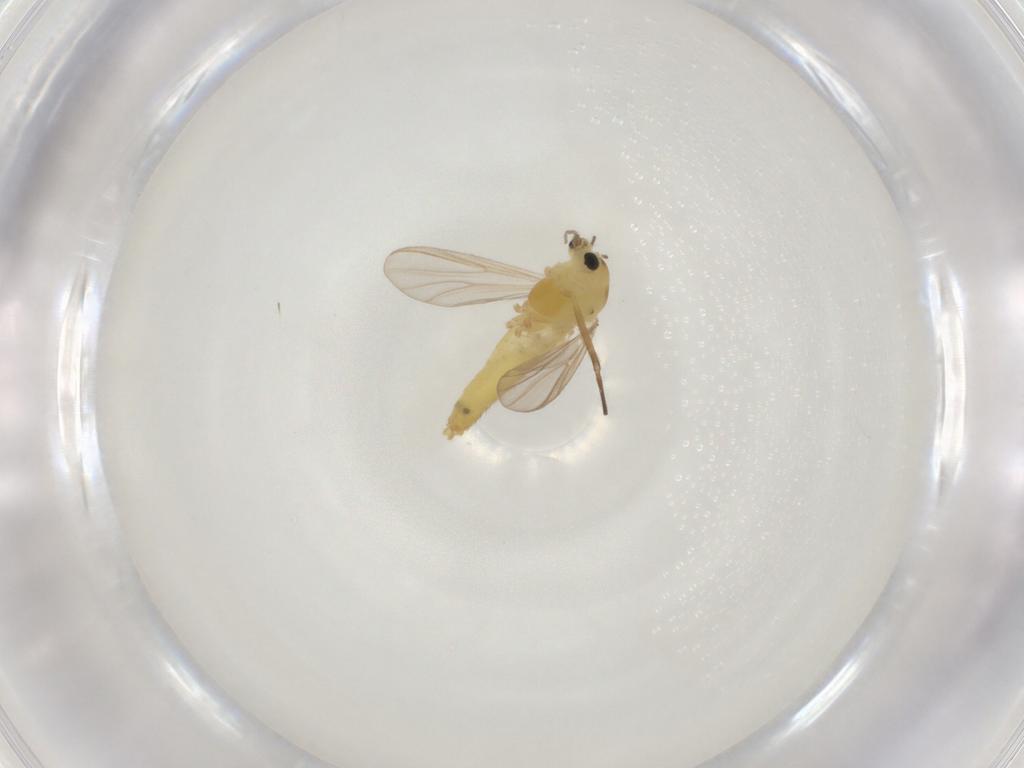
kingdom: Animalia
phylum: Arthropoda
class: Insecta
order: Diptera
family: Chironomidae
